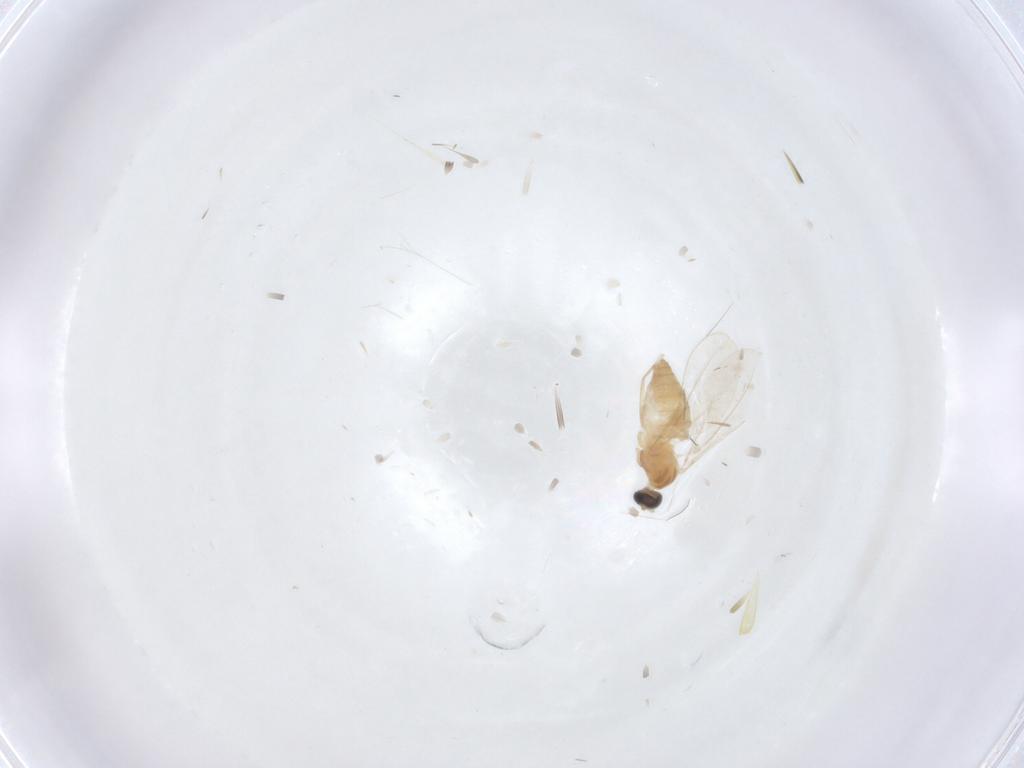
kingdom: Animalia
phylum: Arthropoda
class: Insecta
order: Diptera
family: Cecidomyiidae
